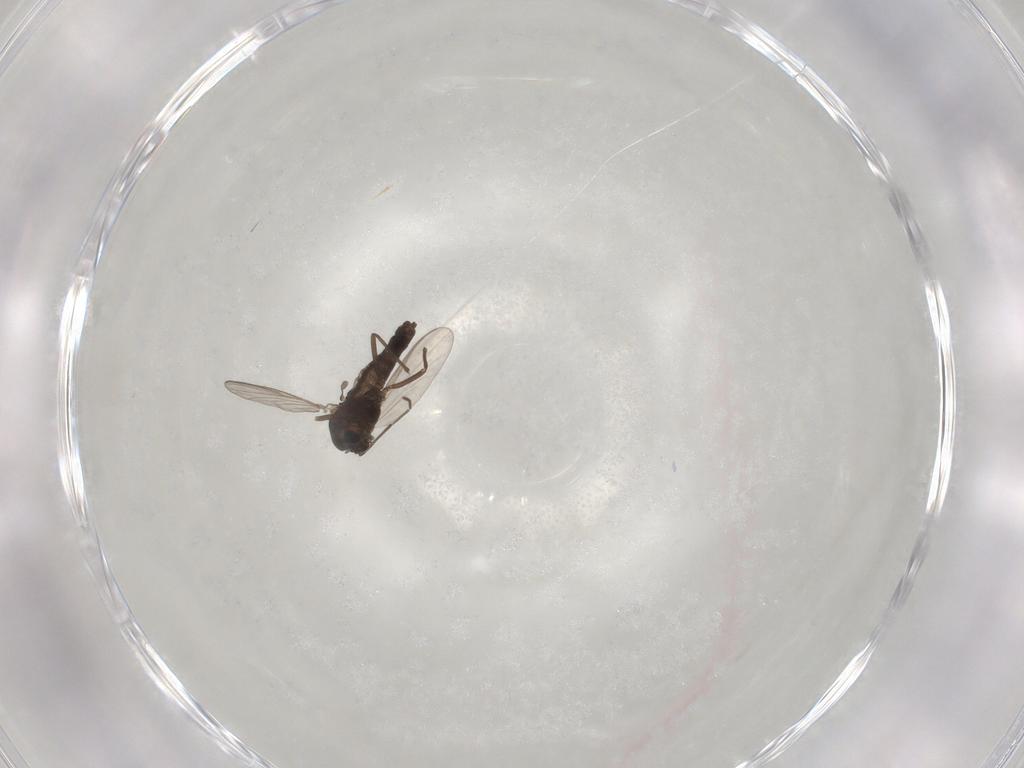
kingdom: Animalia
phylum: Arthropoda
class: Insecta
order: Diptera
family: Chironomidae
